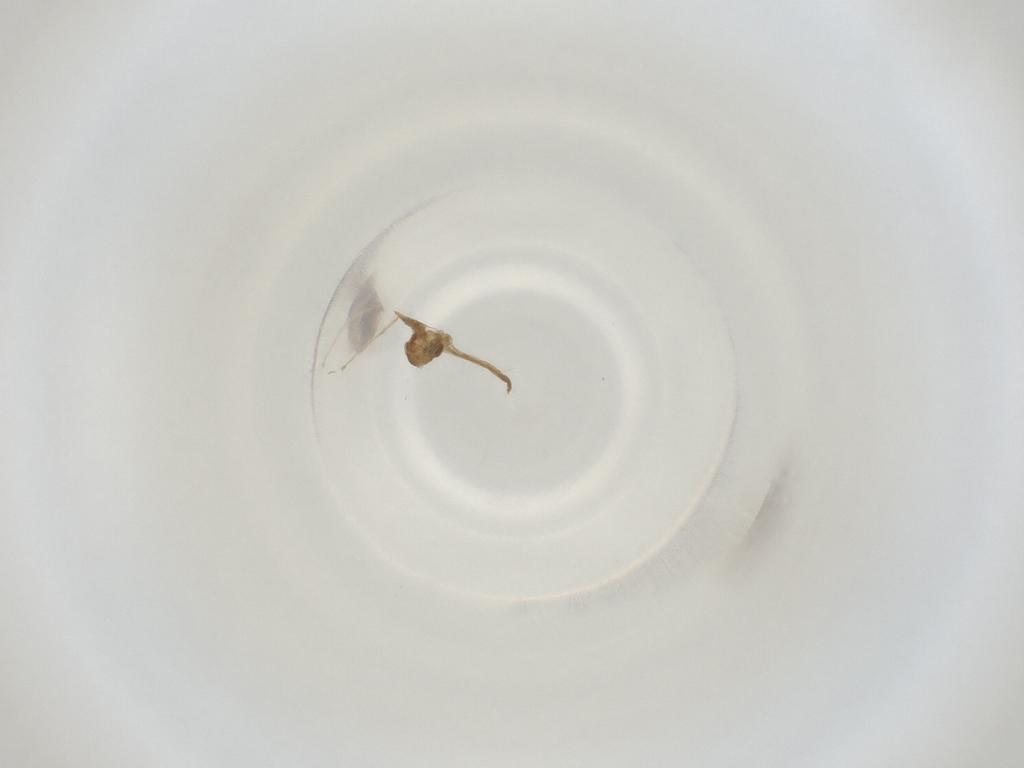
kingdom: Animalia
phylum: Arthropoda
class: Insecta
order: Diptera
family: Cecidomyiidae
